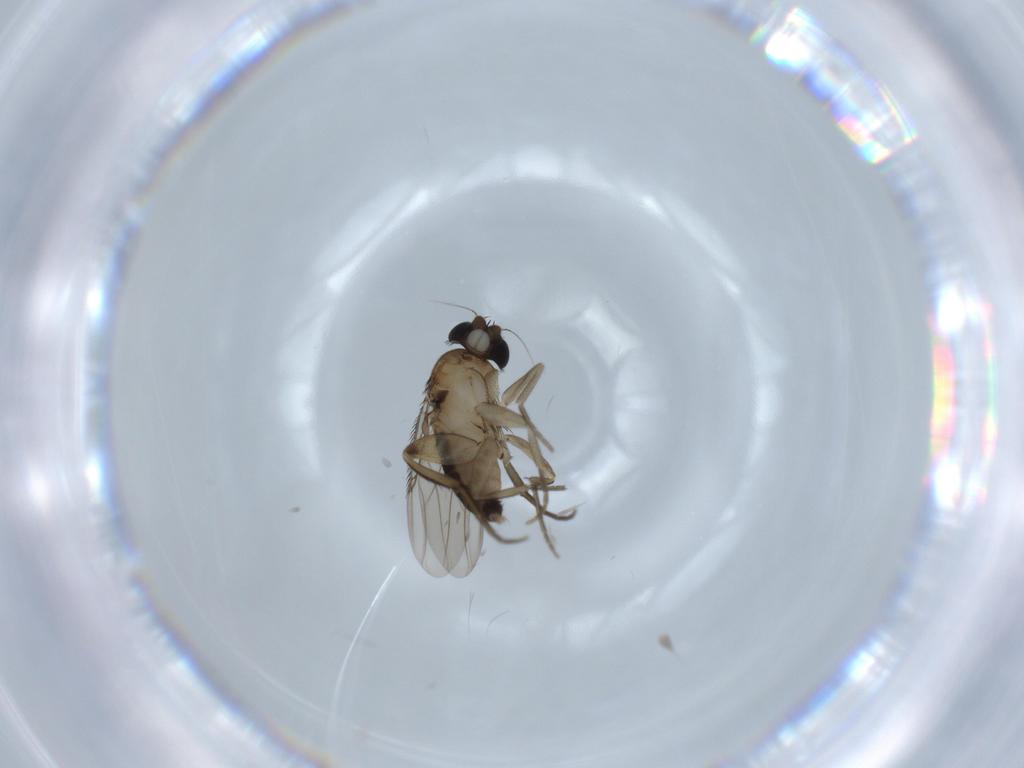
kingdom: Animalia
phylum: Arthropoda
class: Insecta
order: Diptera
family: Phoridae
